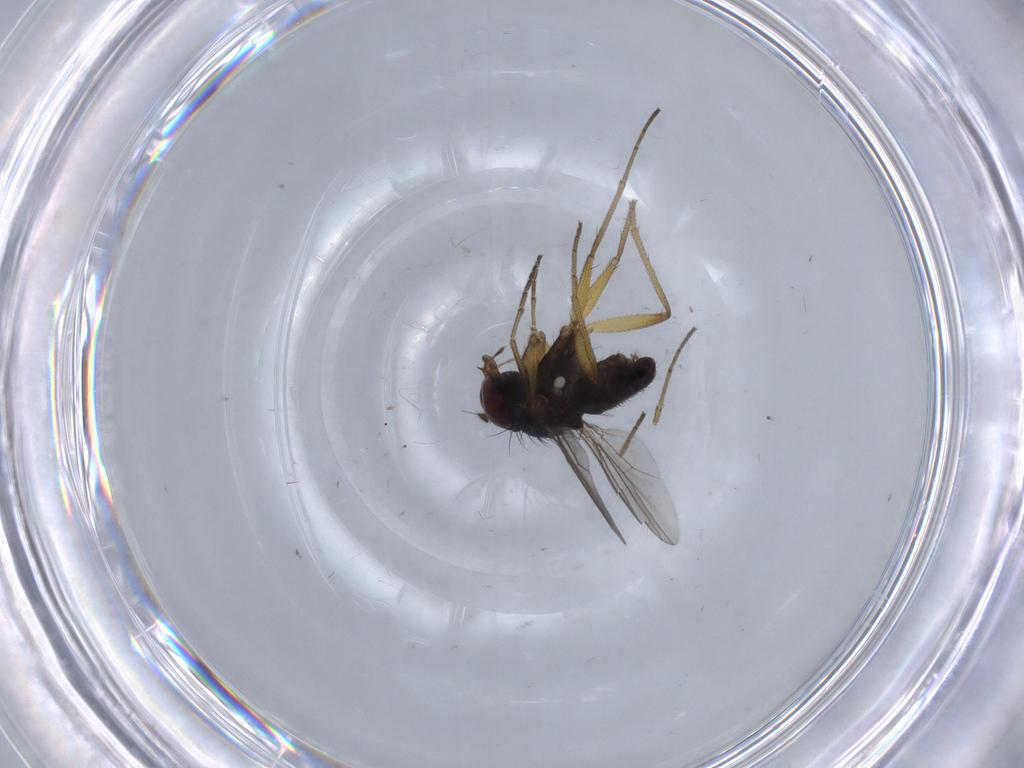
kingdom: Animalia
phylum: Arthropoda
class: Insecta
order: Diptera
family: Dolichopodidae
